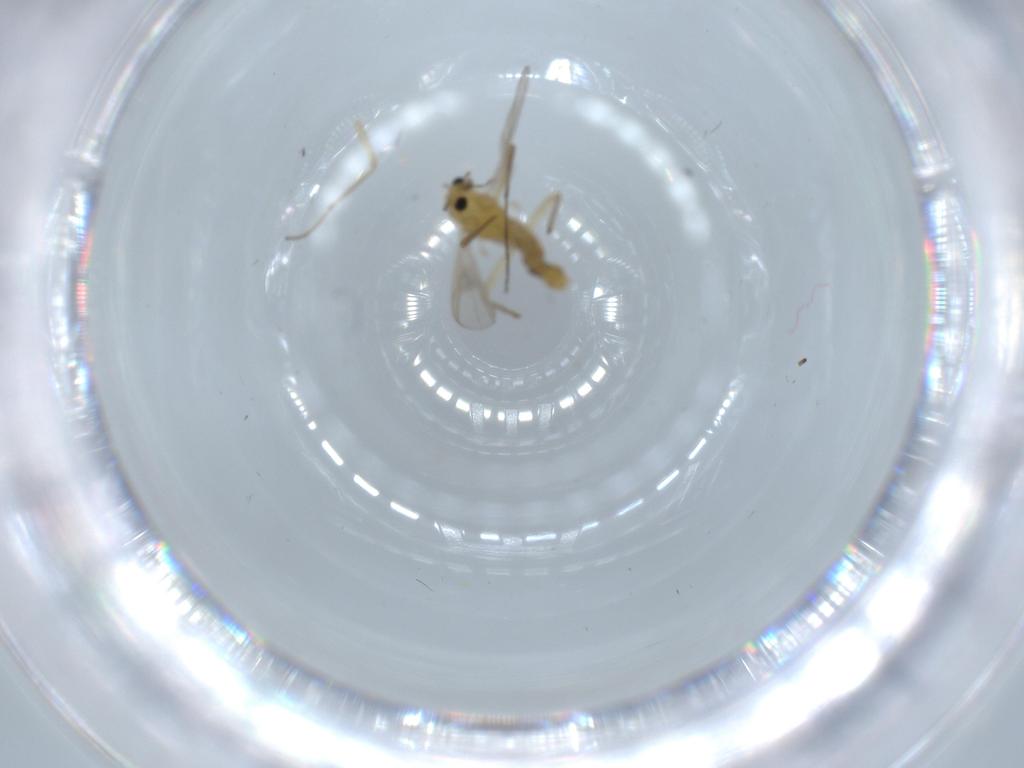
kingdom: Animalia
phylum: Arthropoda
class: Insecta
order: Diptera
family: Chironomidae
